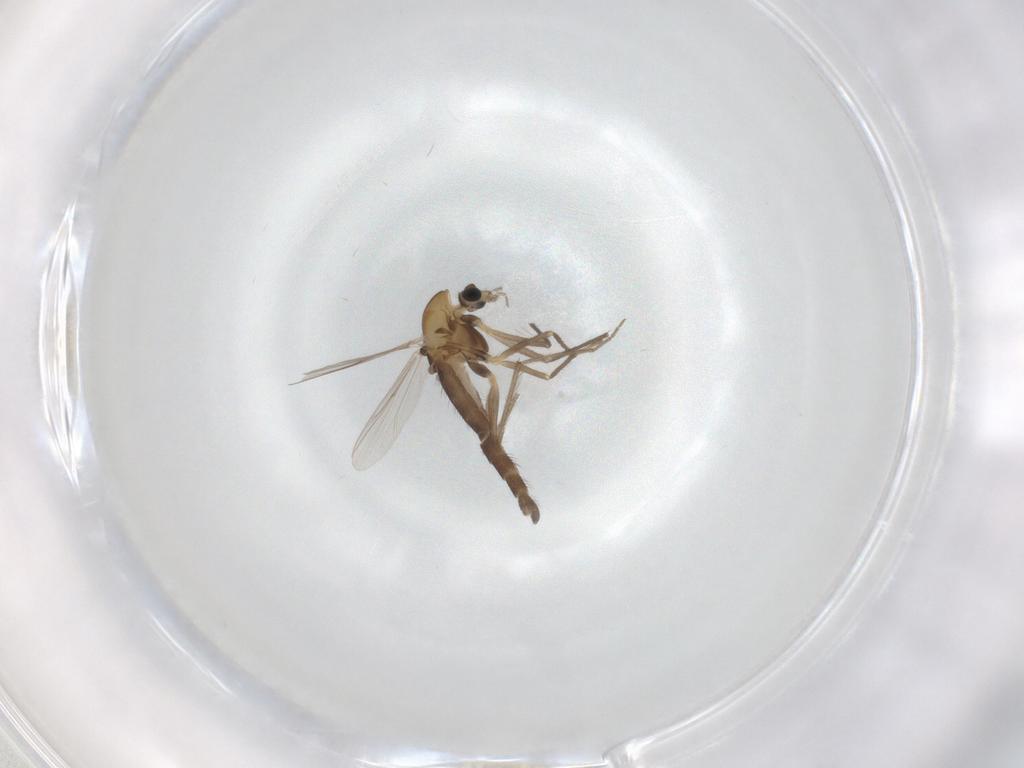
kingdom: Animalia
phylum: Arthropoda
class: Insecta
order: Diptera
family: Chironomidae
